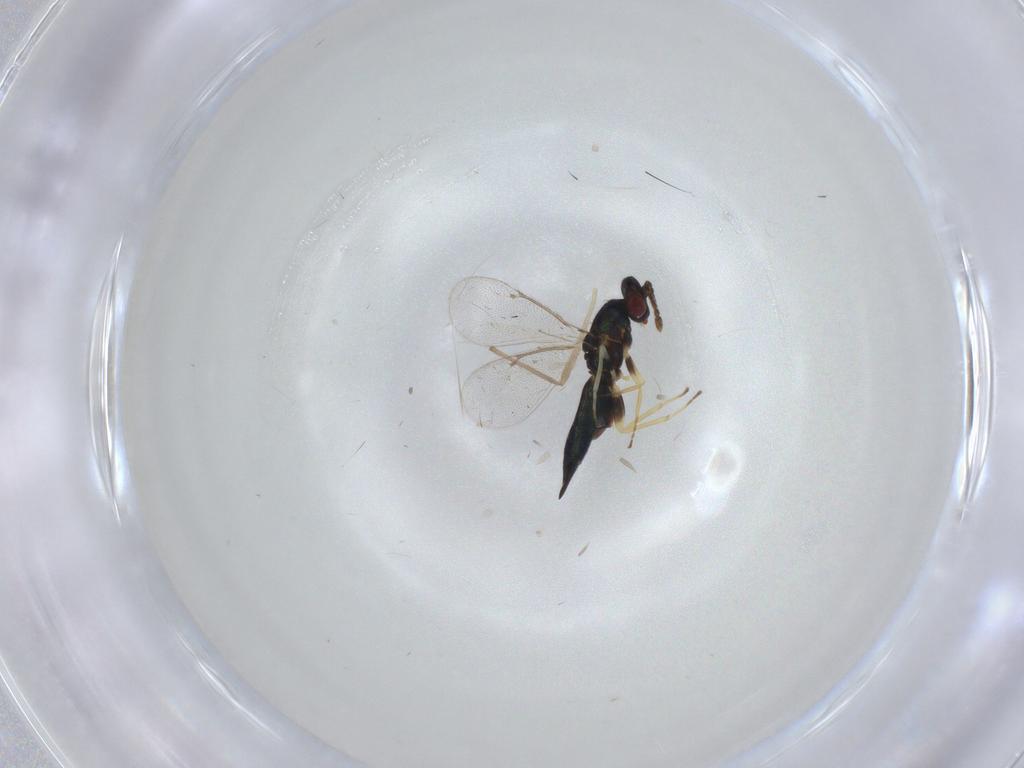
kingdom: Animalia
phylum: Arthropoda
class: Insecta
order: Hymenoptera
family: Eulophidae
